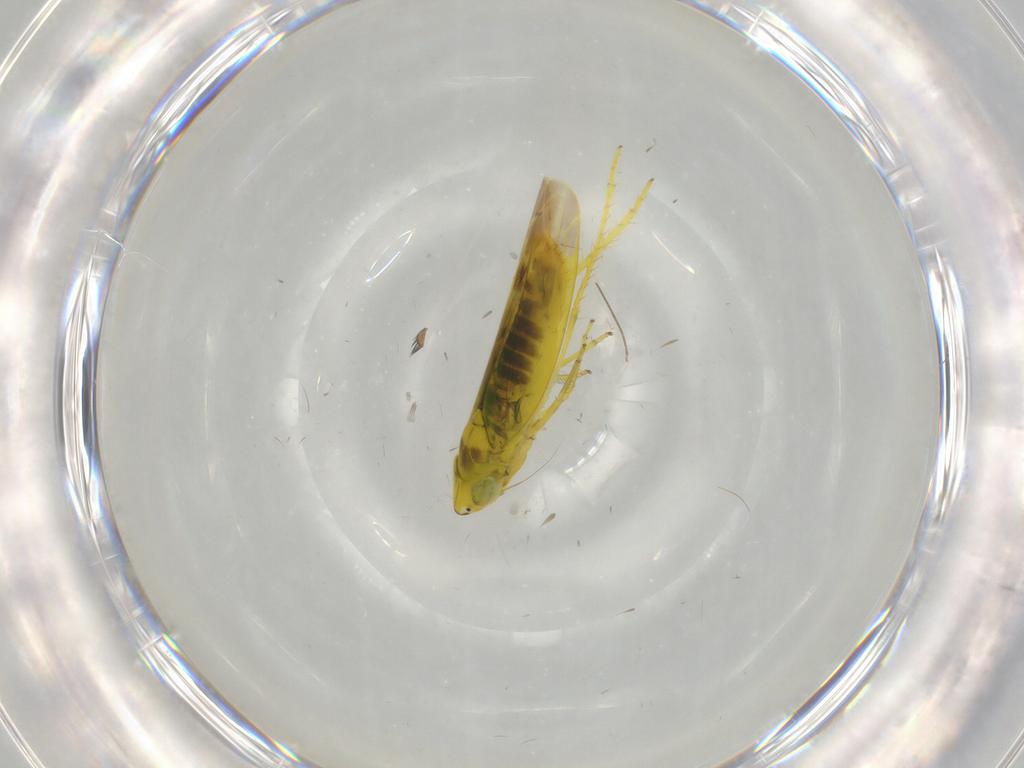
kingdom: Animalia
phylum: Arthropoda
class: Insecta
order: Hemiptera
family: Cicadellidae
